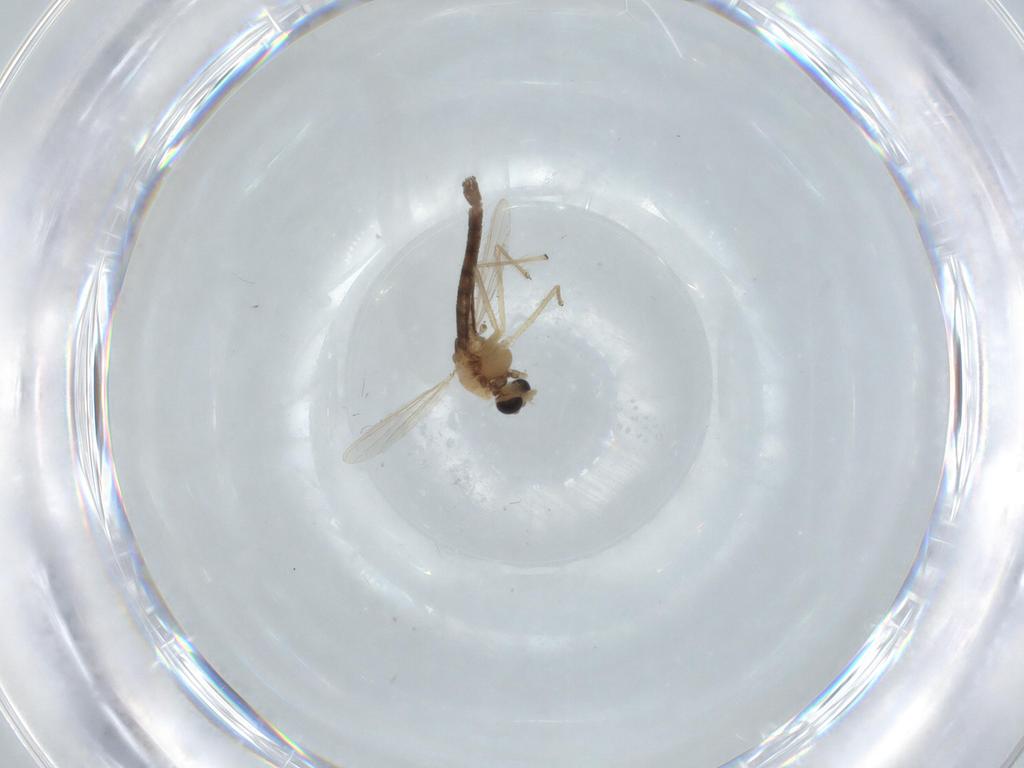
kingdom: Animalia
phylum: Arthropoda
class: Insecta
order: Diptera
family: Chironomidae
